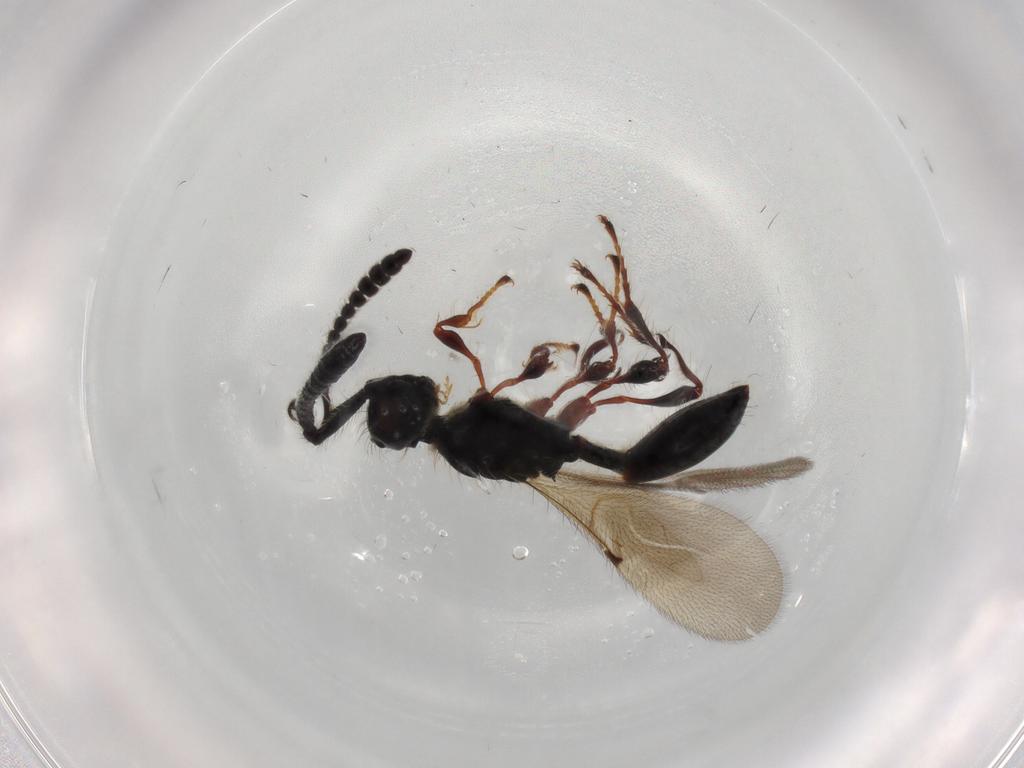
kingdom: Animalia
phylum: Arthropoda
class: Insecta
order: Hymenoptera
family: Diapriidae
